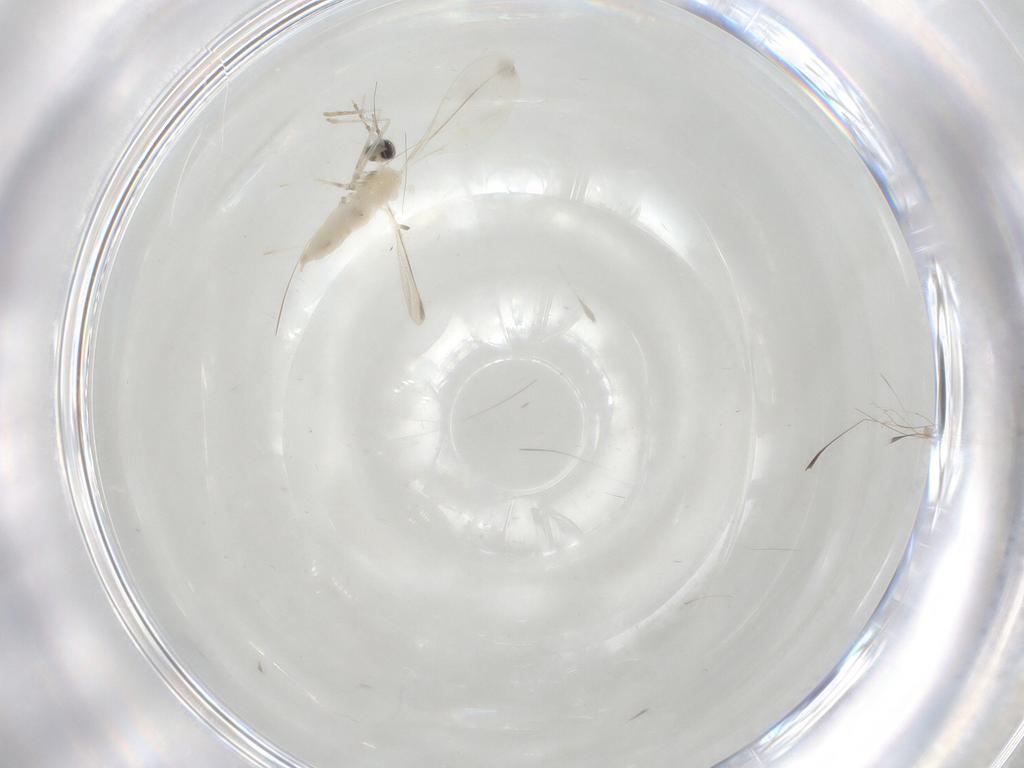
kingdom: Animalia
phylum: Arthropoda
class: Insecta
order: Diptera
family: Cecidomyiidae
